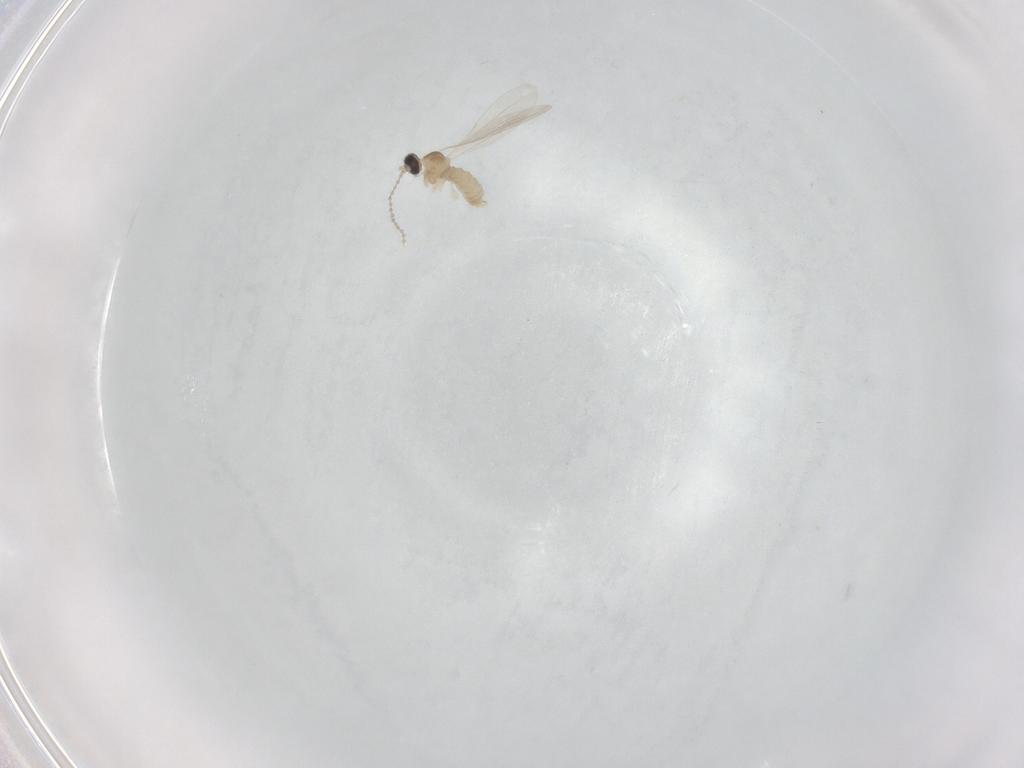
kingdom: Animalia
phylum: Arthropoda
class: Insecta
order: Diptera
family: Cecidomyiidae
